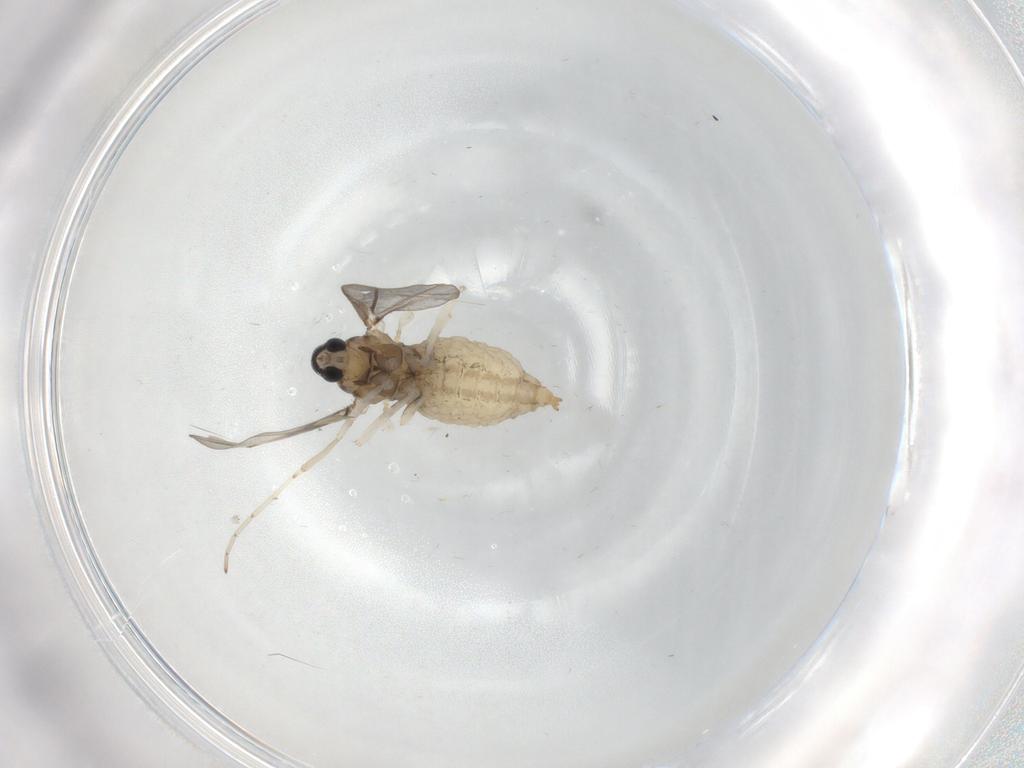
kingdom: Animalia
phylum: Arthropoda
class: Insecta
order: Diptera
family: Cecidomyiidae
